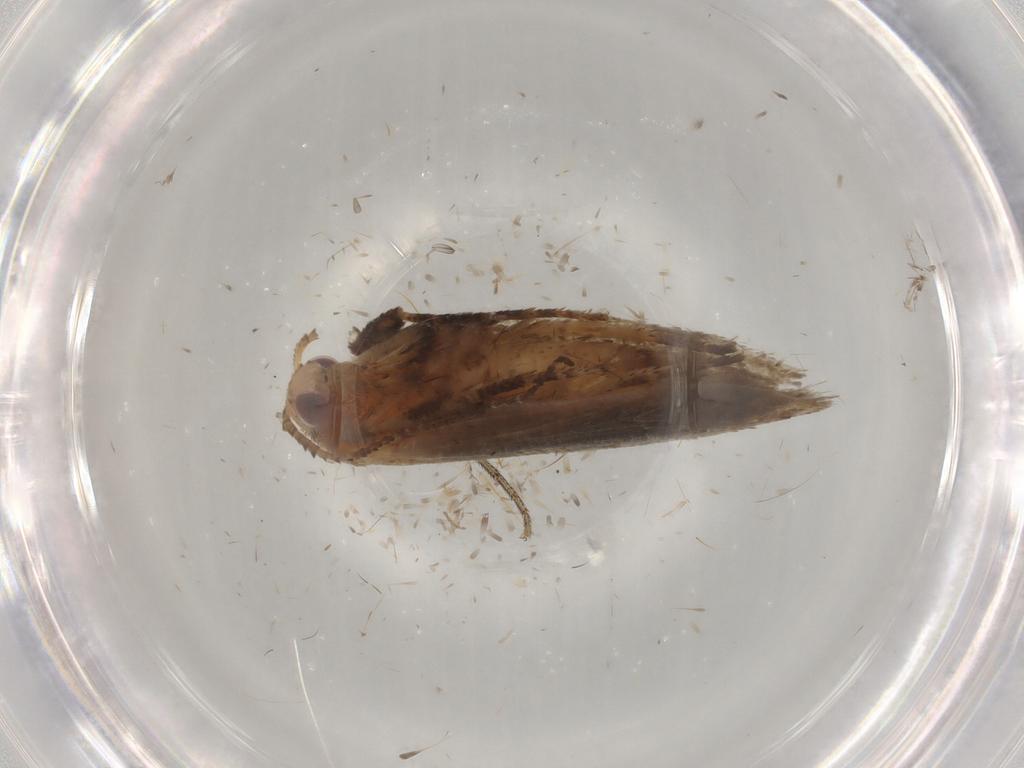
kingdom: Animalia
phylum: Arthropoda
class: Insecta
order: Lepidoptera
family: Ypsolophidae
